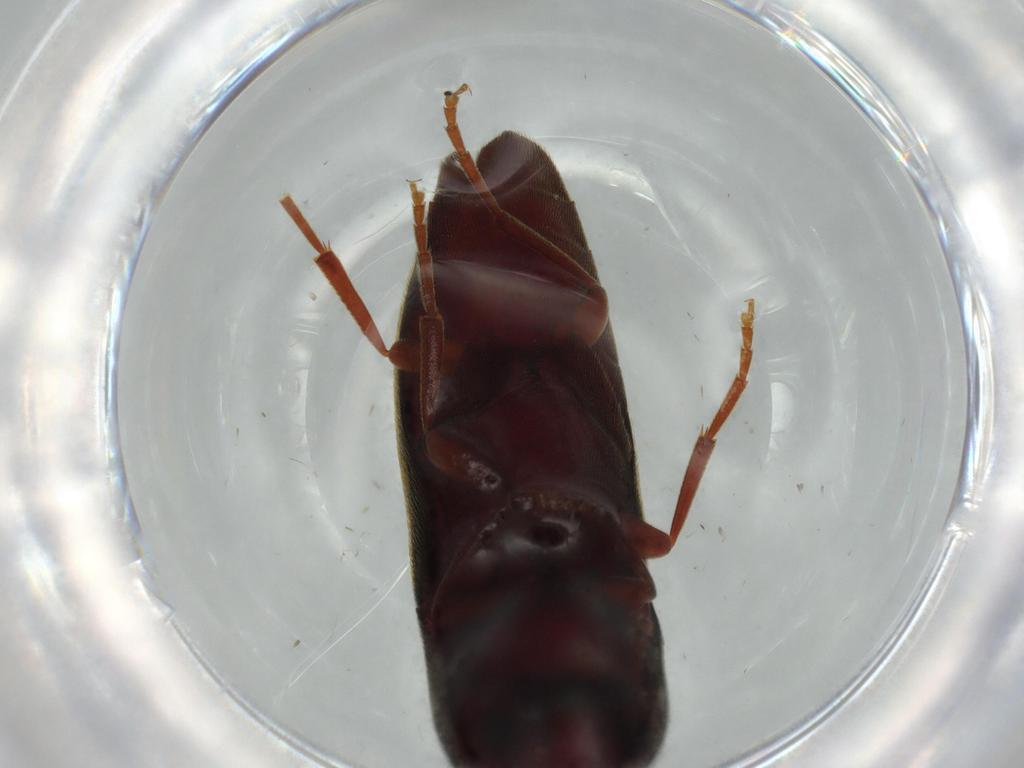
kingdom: Animalia
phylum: Arthropoda
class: Insecta
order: Coleoptera
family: Eucnemidae
